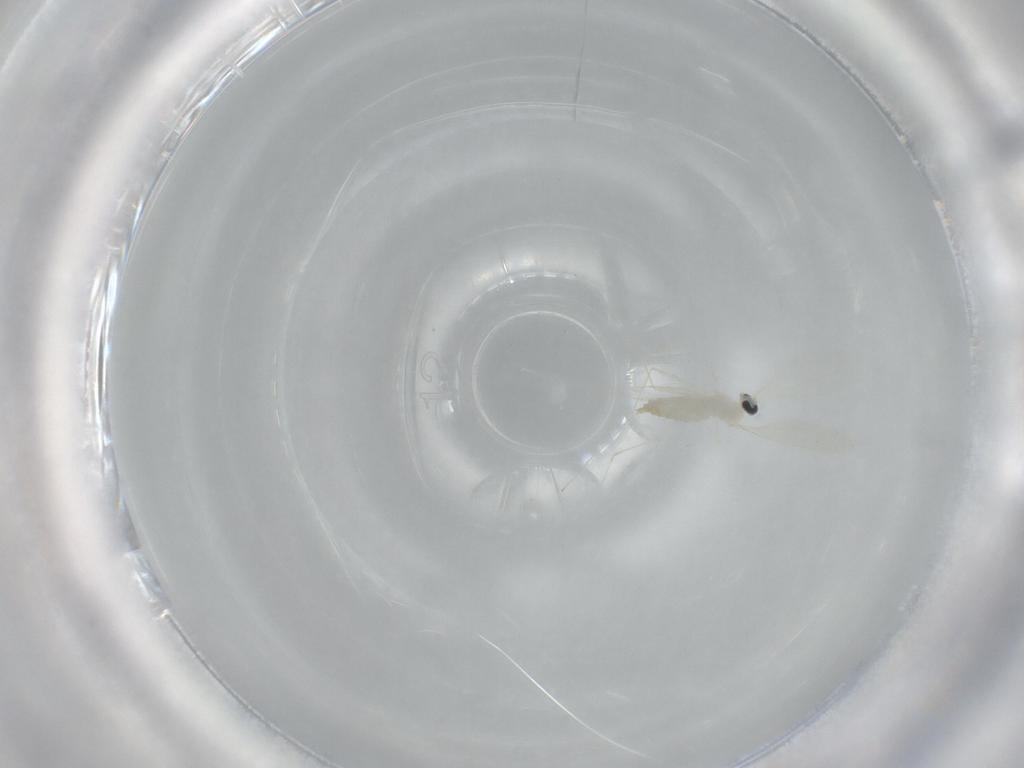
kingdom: Animalia
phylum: Arthropoda
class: Insecta
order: Diptera
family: Cecidomyiidae
